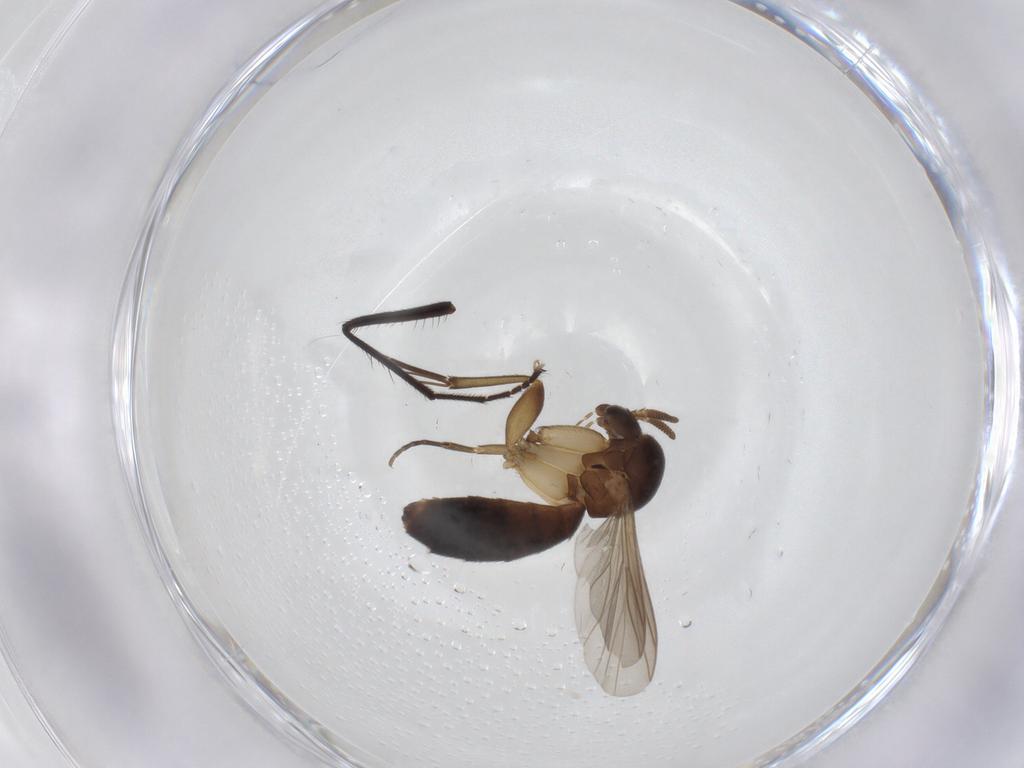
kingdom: Animalia
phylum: Arthropoda
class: Insecta
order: Diptera
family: Mycetophilidae
